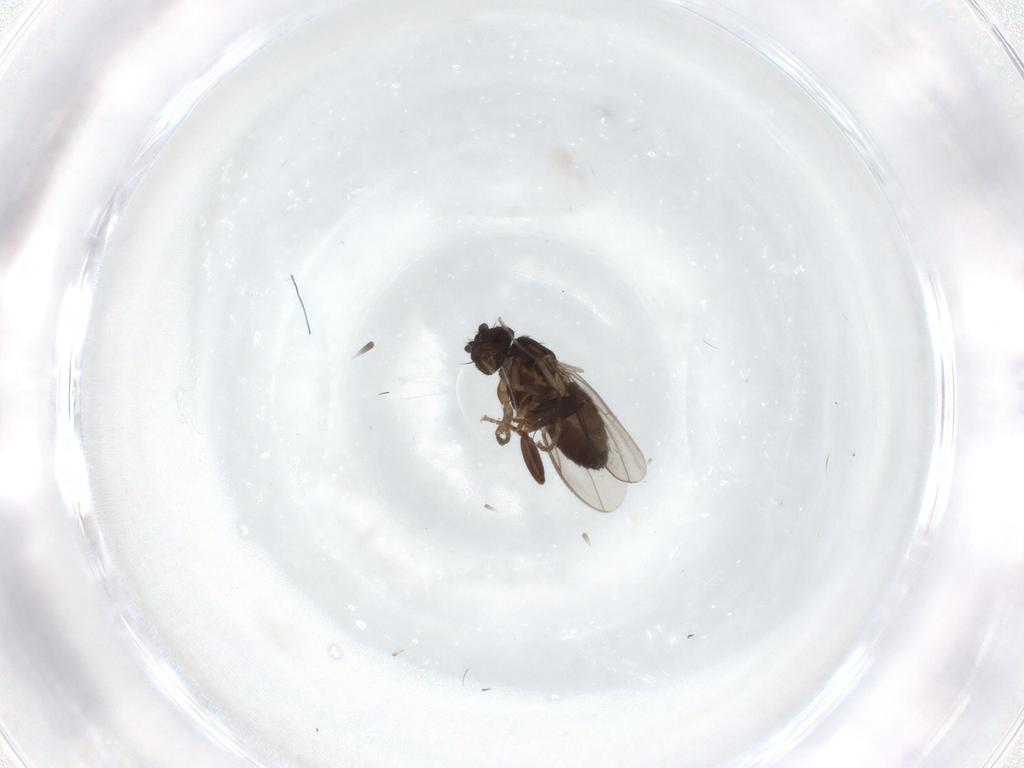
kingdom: Animalia
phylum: Arthropoda
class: Insecta
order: Diptera
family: Sphaeroceridae
